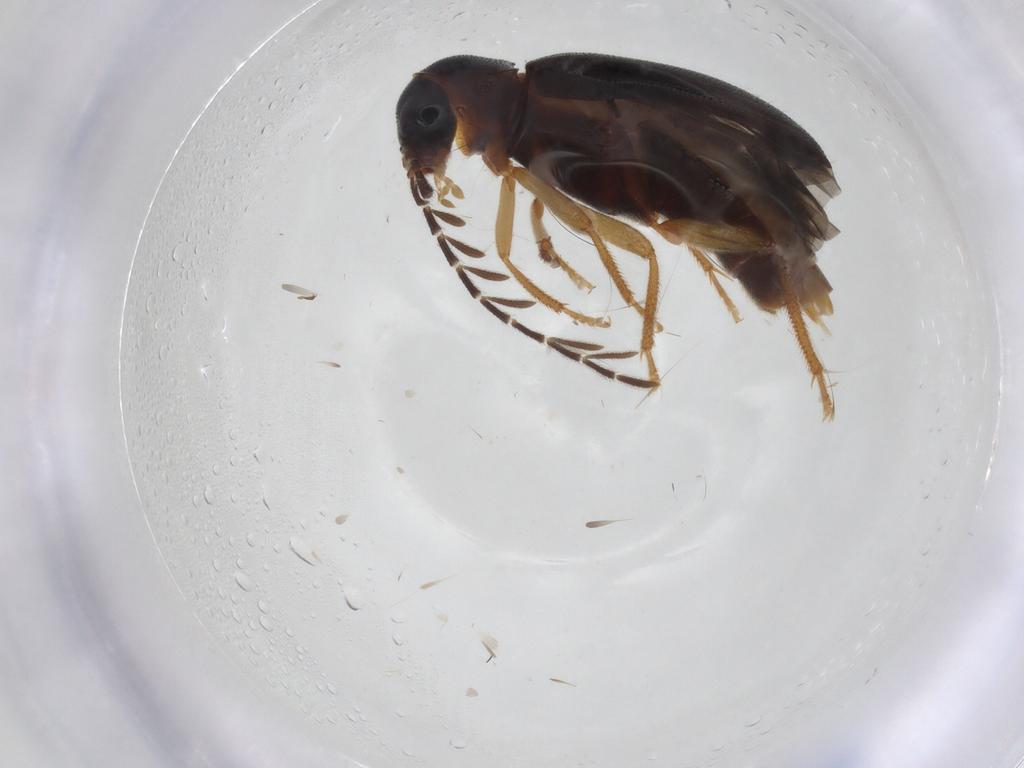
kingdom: Animalia
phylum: Arthropoda
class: Insecta
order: Coleoptera
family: Ptilodactylidae
